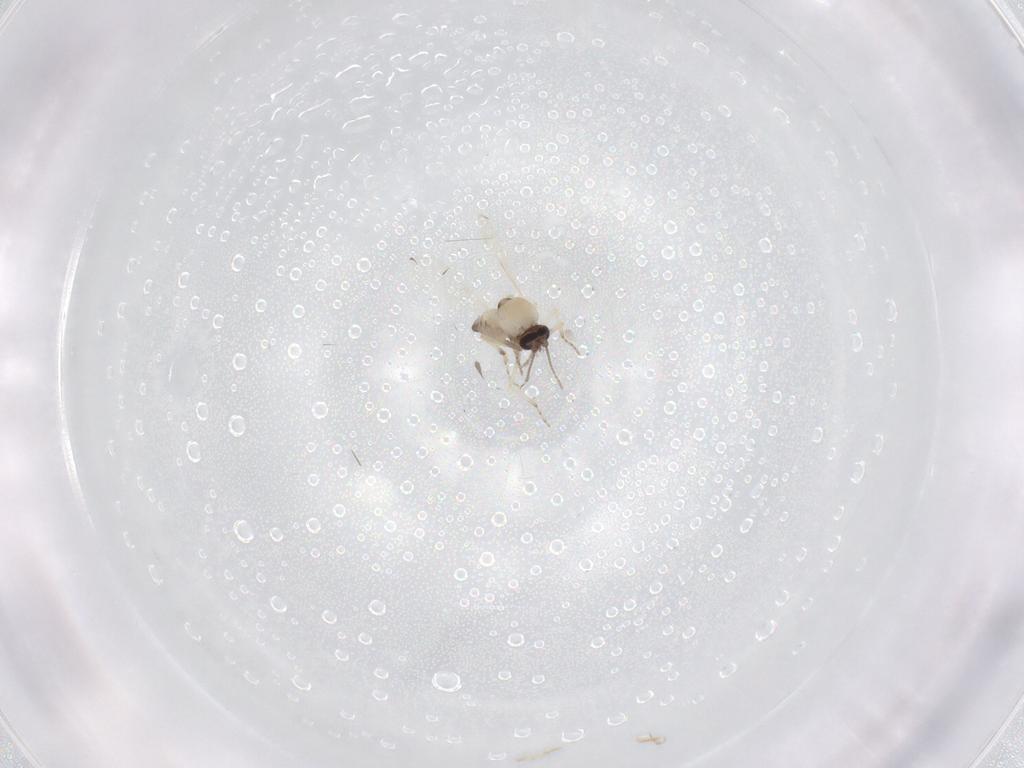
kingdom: Animalia
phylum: Arthropoda
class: Insecta
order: Diptera
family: Ceratopogonidae
